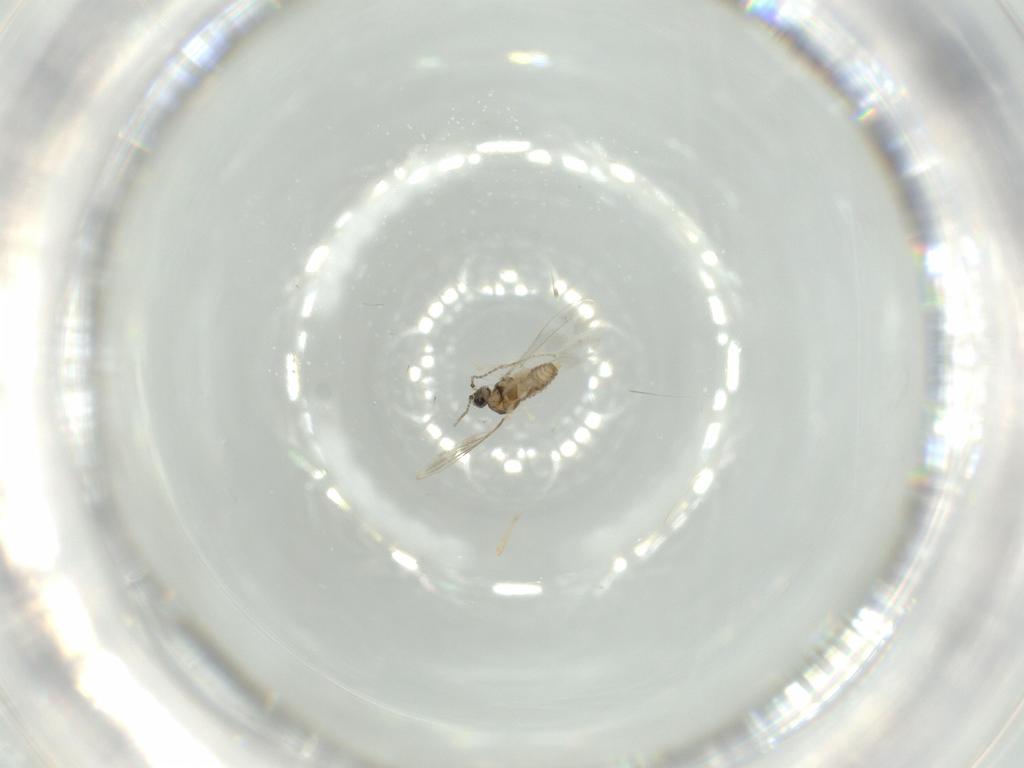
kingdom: Animalia
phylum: Arthropoda
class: Insecta
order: Diptera
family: Cecidomyiidae
